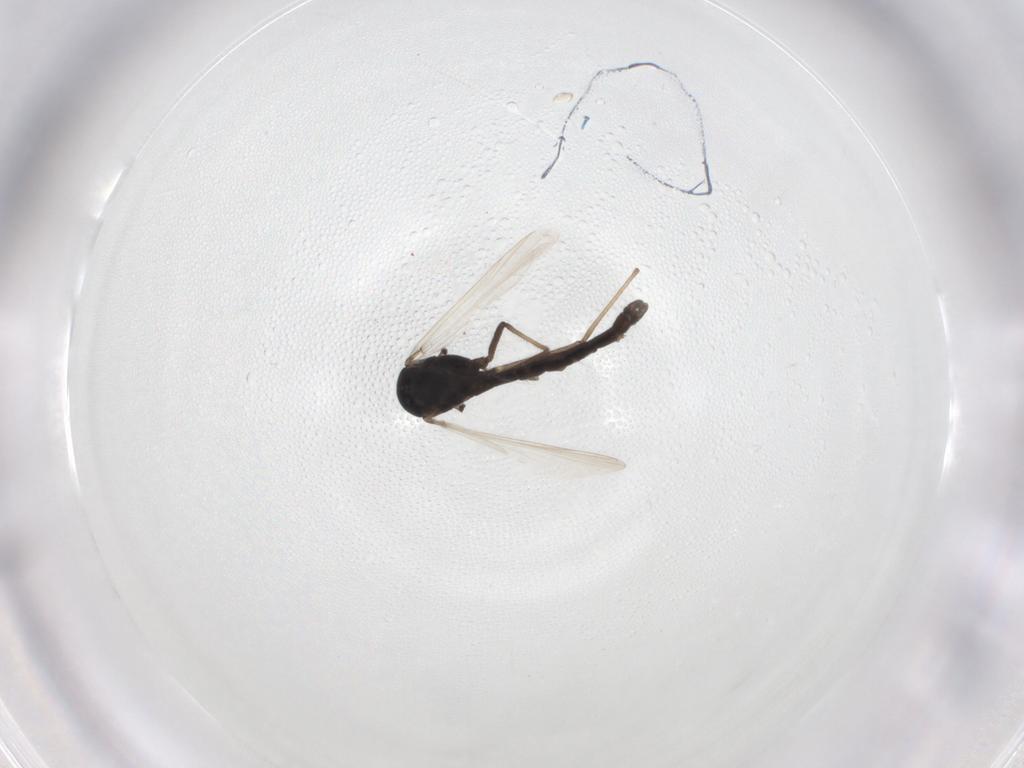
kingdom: Animalia
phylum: Arthropoda
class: Insecta
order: Diptera
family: Chironomidae
